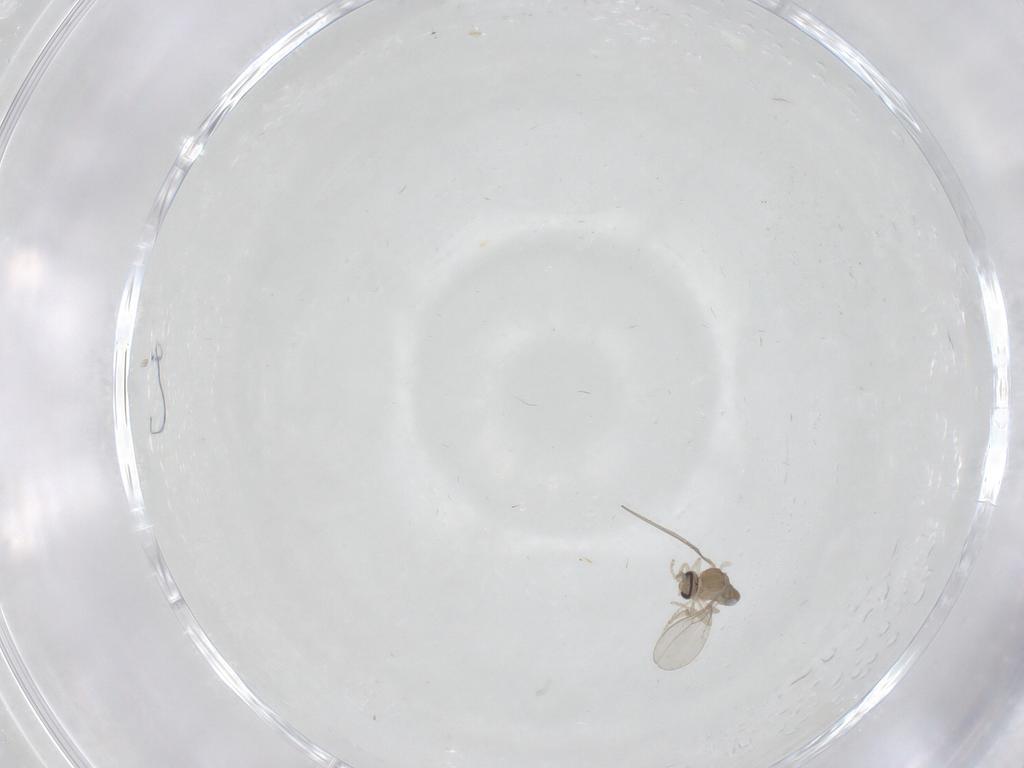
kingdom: Animalia
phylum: Arthropoda
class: Insecta
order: Diptera
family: Cecidomyiidae
